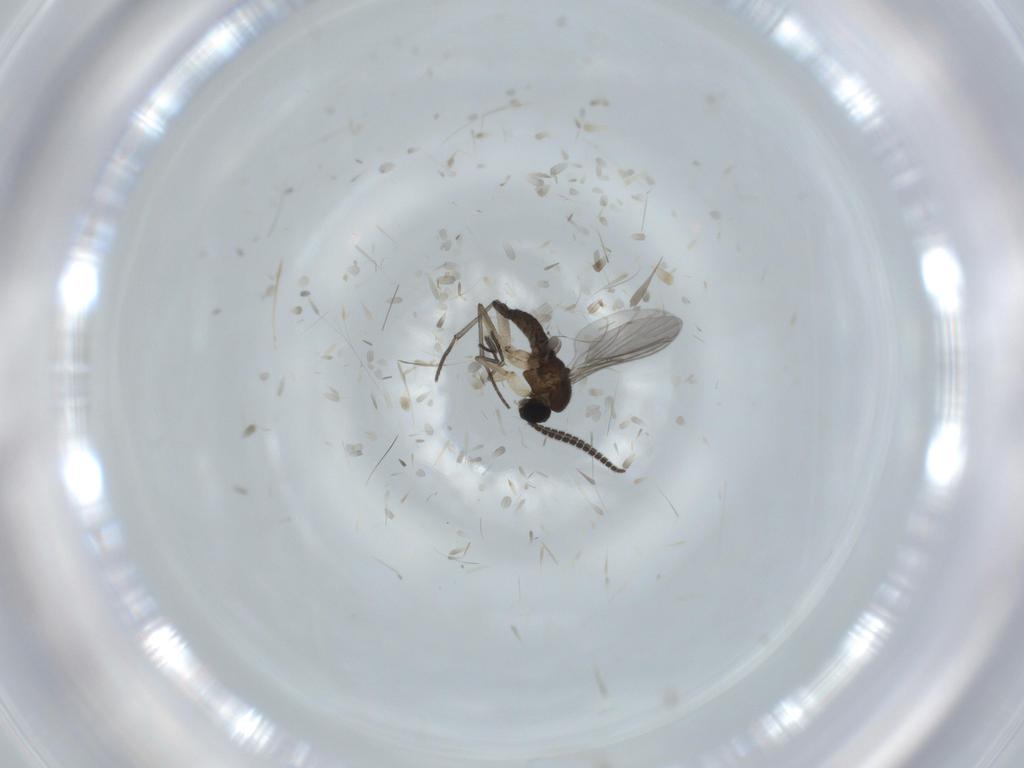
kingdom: Animalia
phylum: Arthropoda
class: Insecta
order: Diptera
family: Sciaridae
